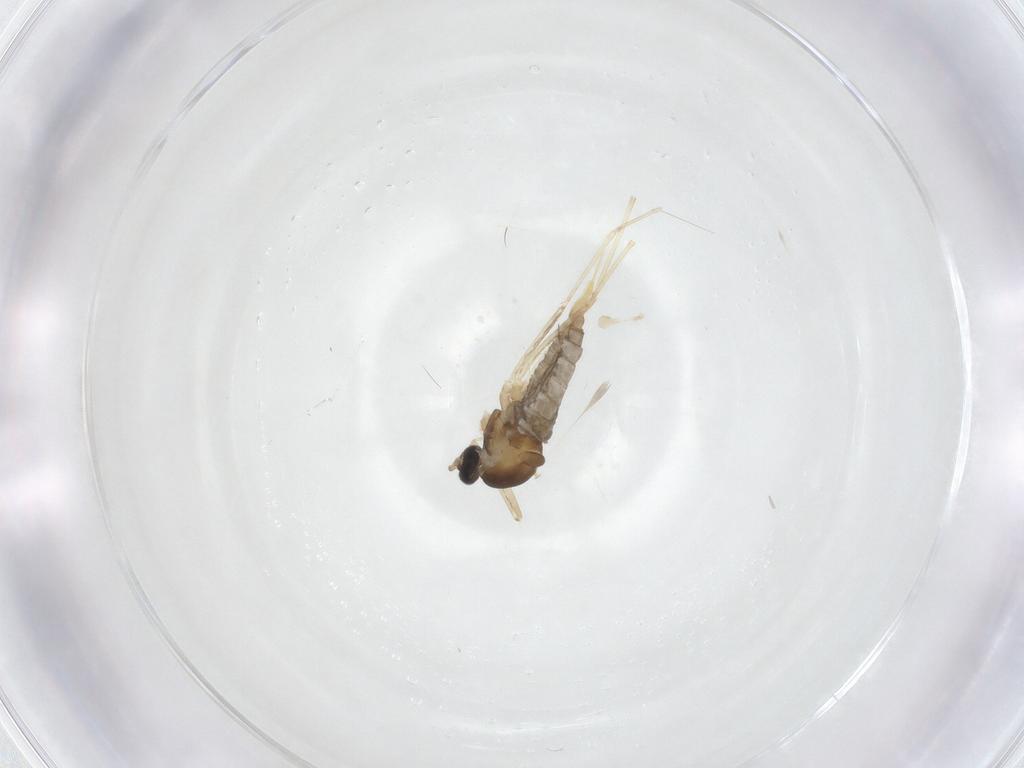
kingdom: Animalia
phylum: Arthropoda
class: Insecta
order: Diptera
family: Cecidomyiidae
